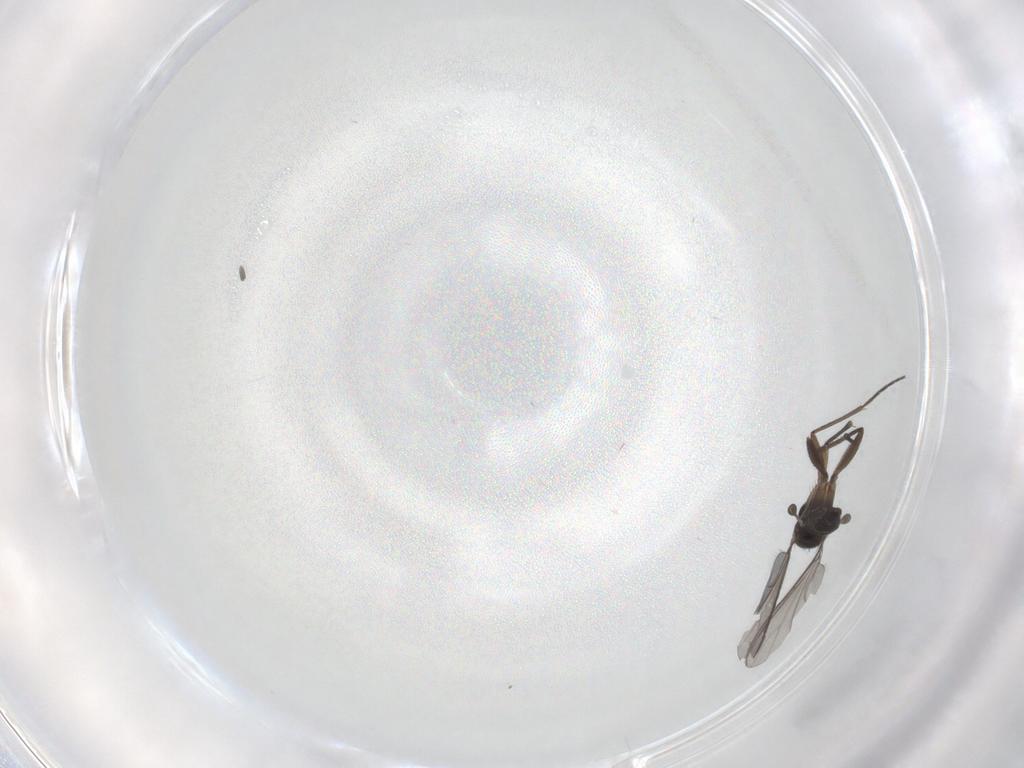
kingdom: Animalia
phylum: Arthropoda
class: Insecta
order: Diptera
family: Sciaridae
